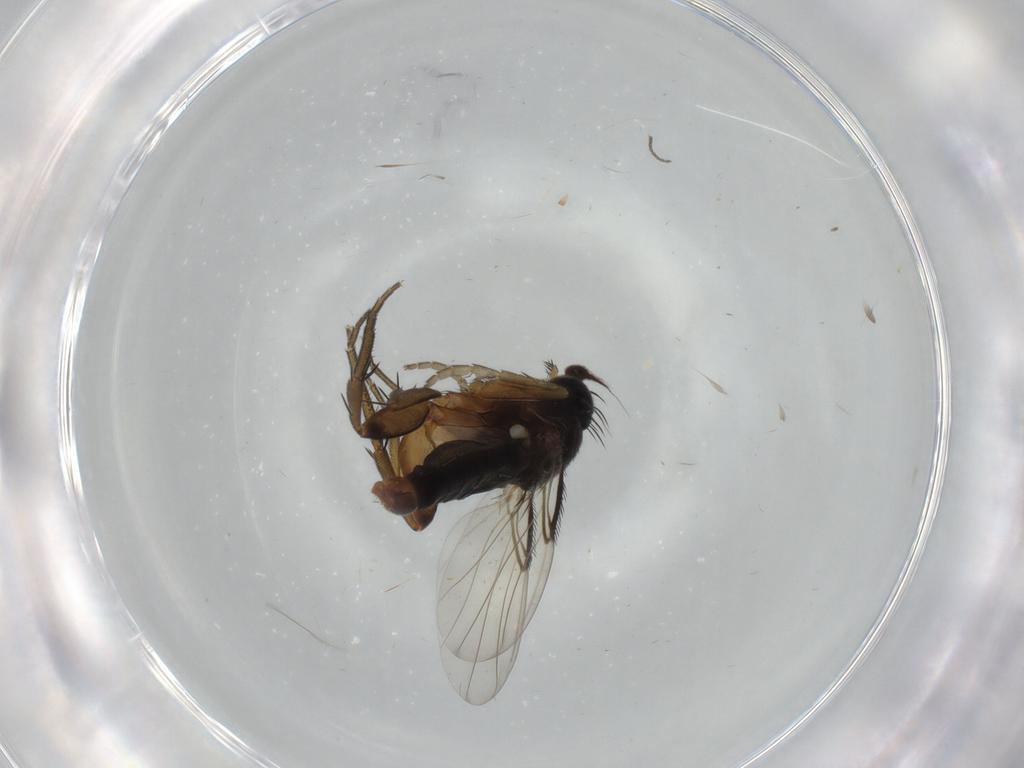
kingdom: Animalia
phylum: Arthropoda
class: Insecta
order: Diptera
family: Phoridae
